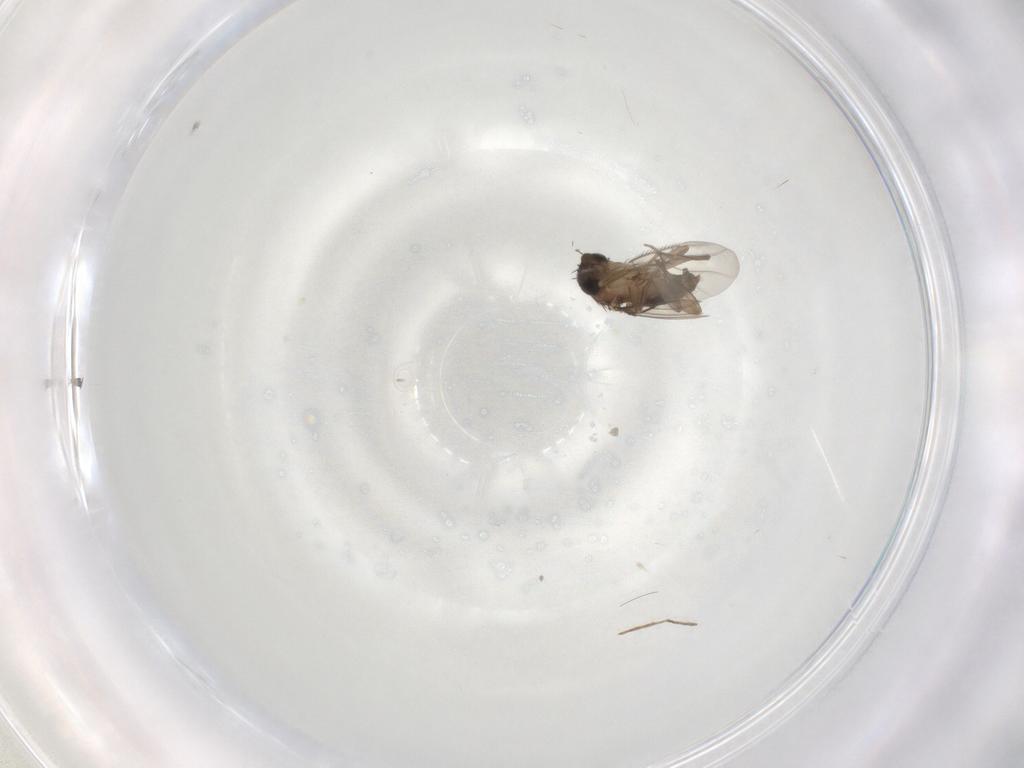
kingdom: Animalia
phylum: Arthropoda
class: Insecta
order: Diptera
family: Phoridae
